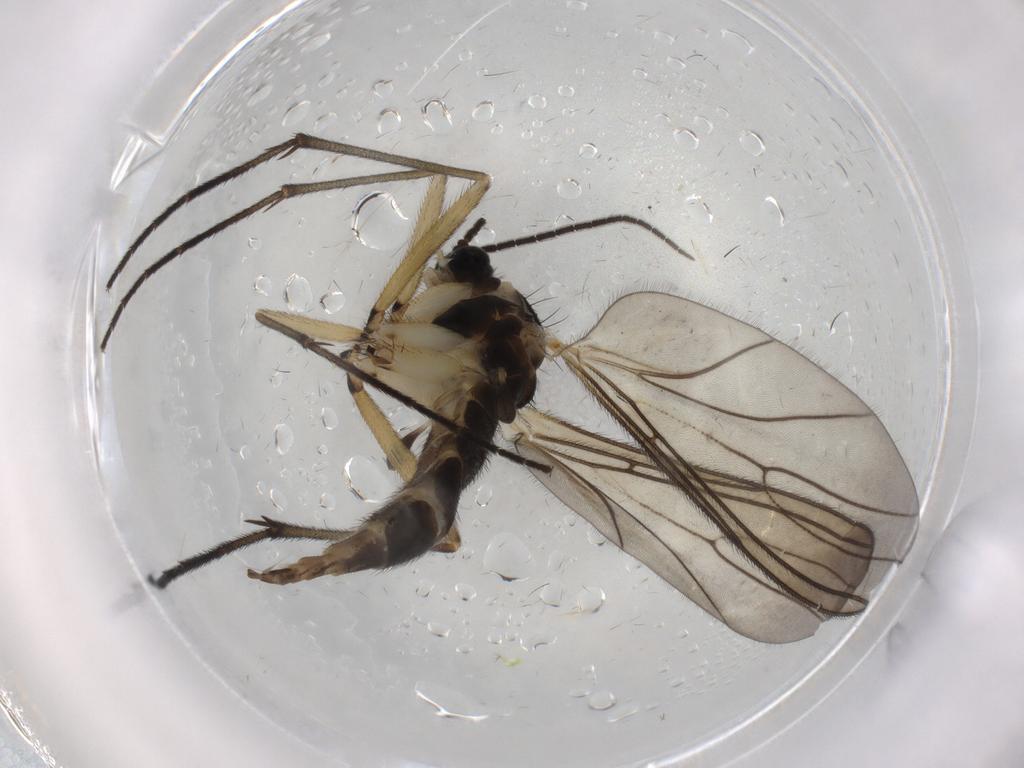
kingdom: Animalia
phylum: Arthropoda
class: Insecta
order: Diptera
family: Sciaridae
